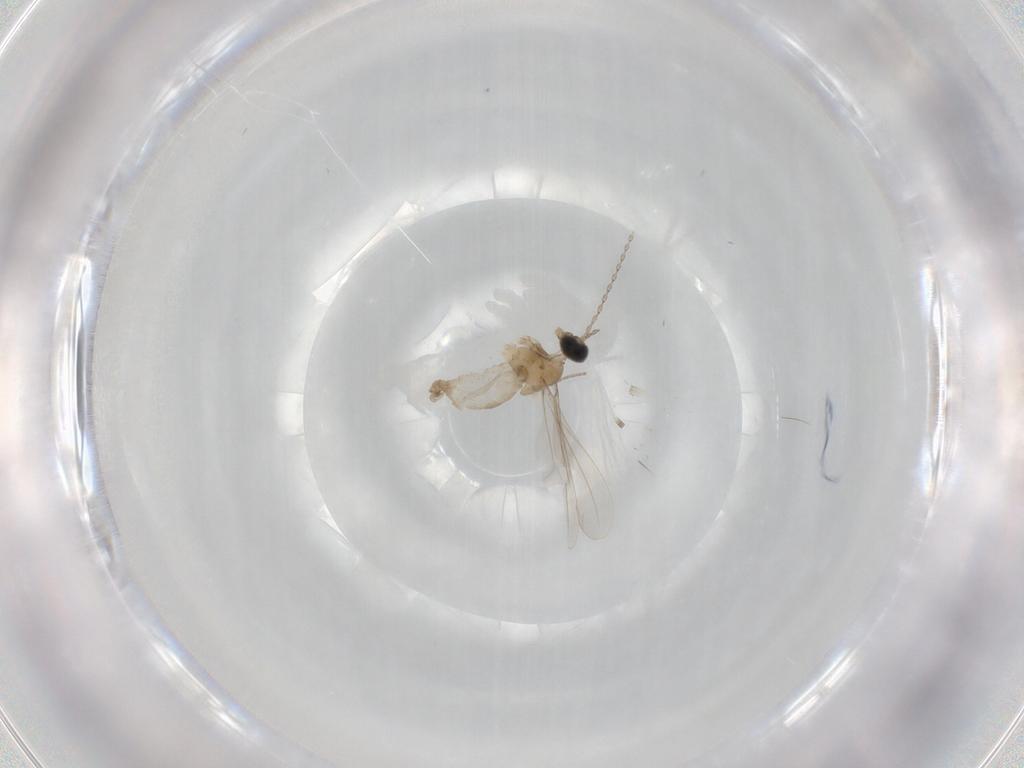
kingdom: Animalia
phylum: Arthropoda
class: Insecta
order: Diptera
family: Cecidomyiidae
